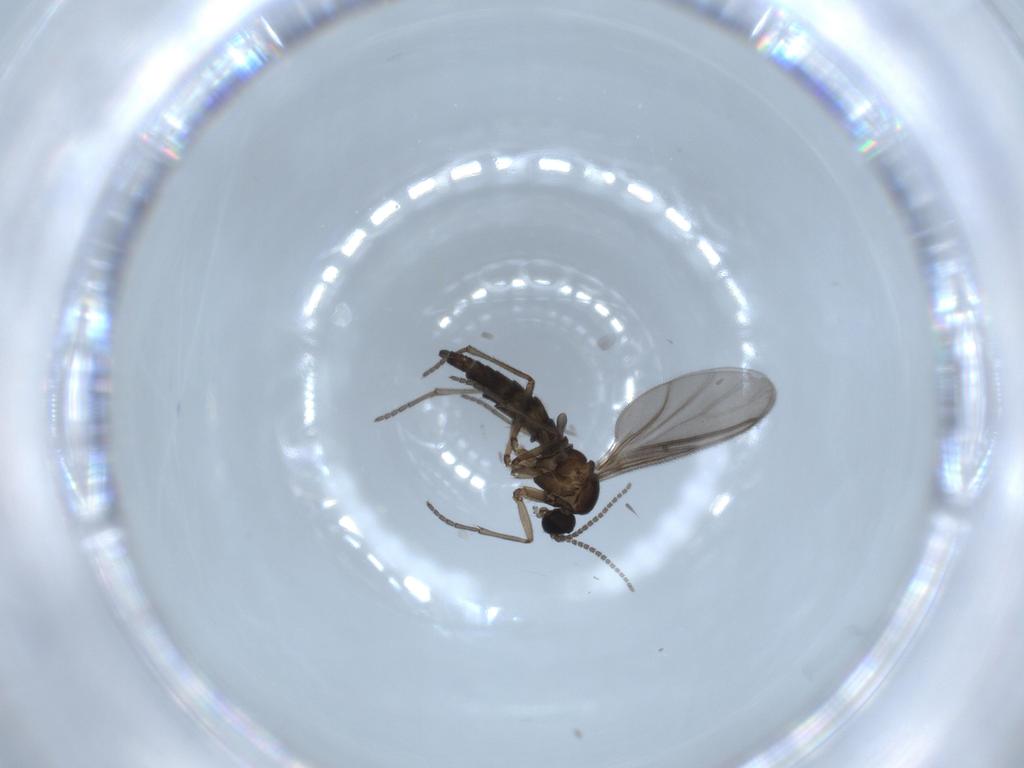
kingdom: Animalia
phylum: Arthropoda
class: Insecta
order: Diptera
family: Sciaridae
